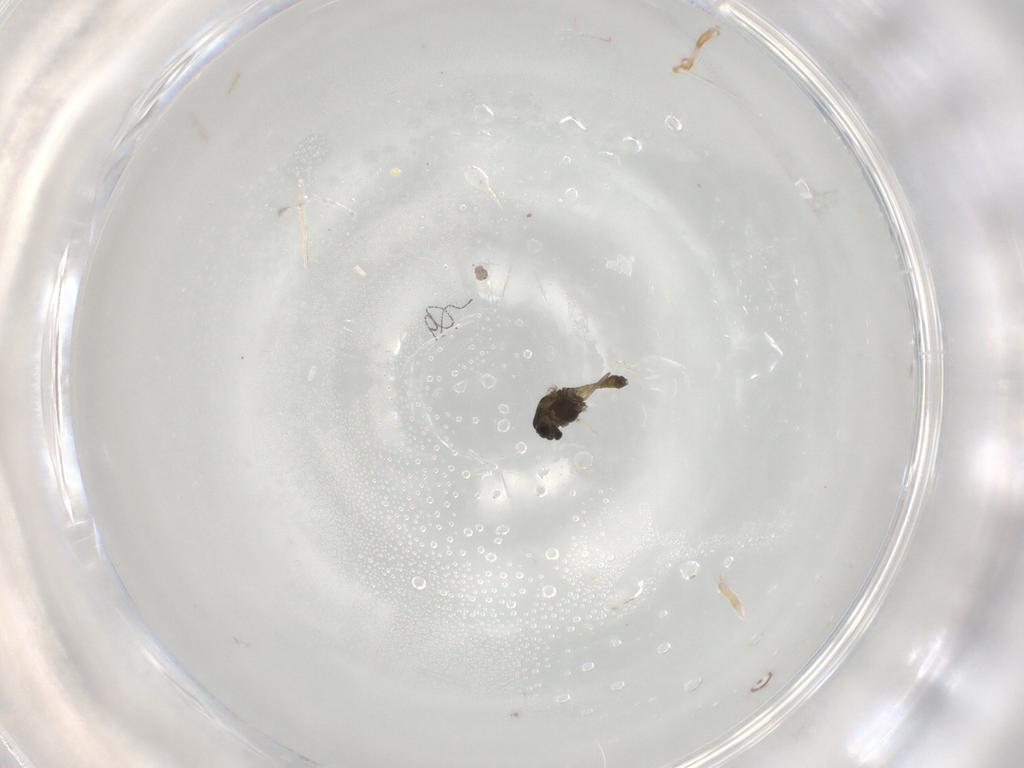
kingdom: Animalia
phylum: Arthropoda
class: Insecta
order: Diptera
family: Chironomidae
